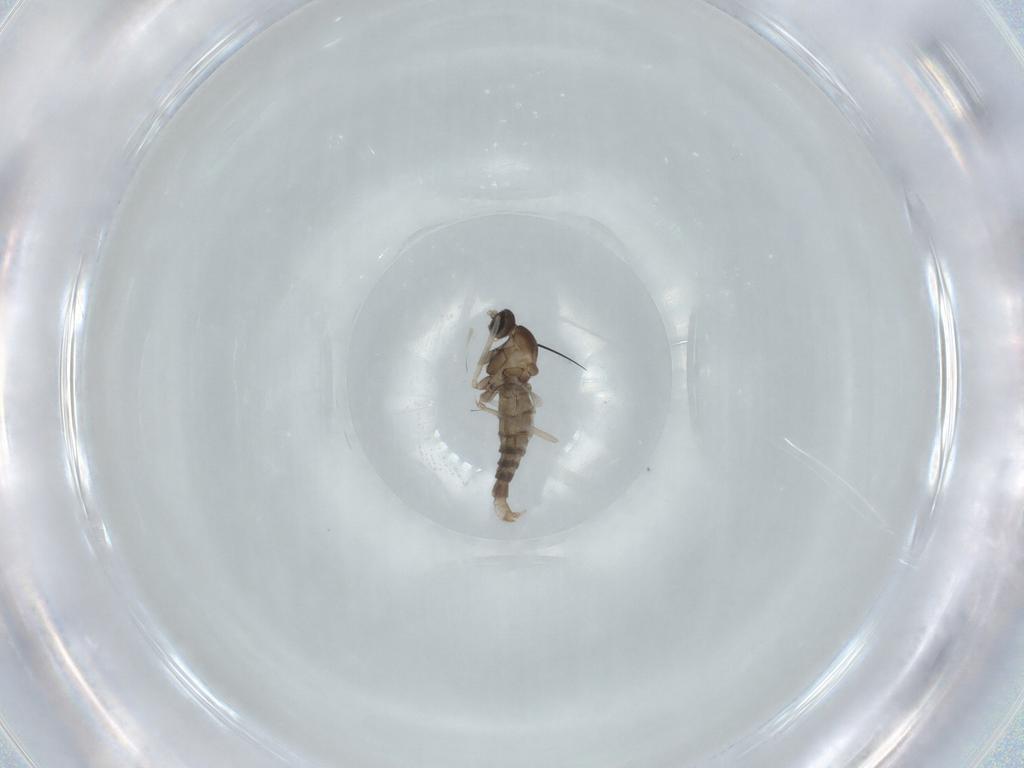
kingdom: Animalia
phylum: Arthropoda
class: Insecta
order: Diptera
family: Cecidomyiidae
